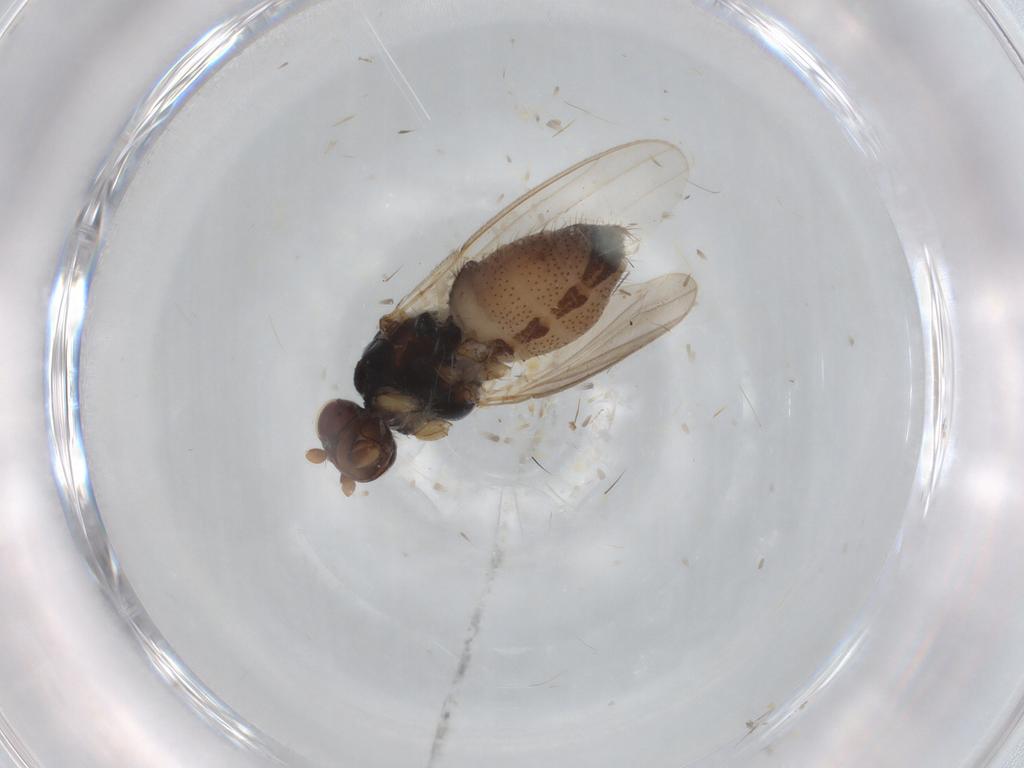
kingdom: Animalia
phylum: Arthropoda
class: Insecta
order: Diptera
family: Sphaeroceridae
